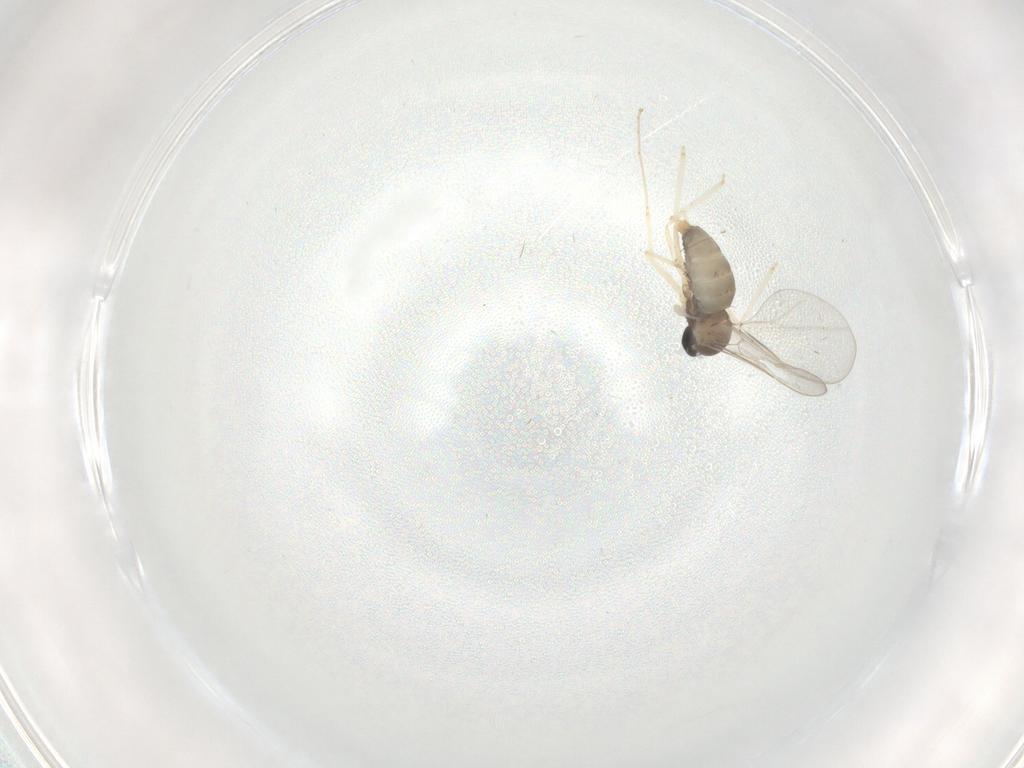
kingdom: Animalia
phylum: Arthropoda
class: Insecta
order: Diptera
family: Cecidomyiidae
